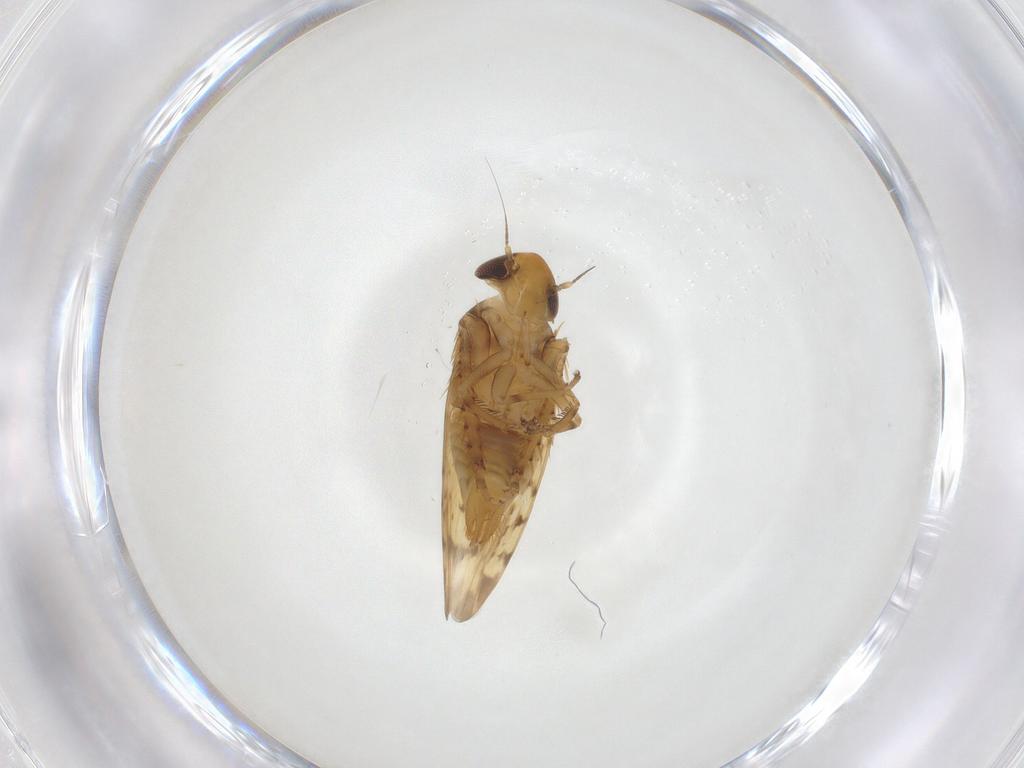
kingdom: Animalia
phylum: Arthropoda
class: Insecta
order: Hemiptera
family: Cicadellidae
